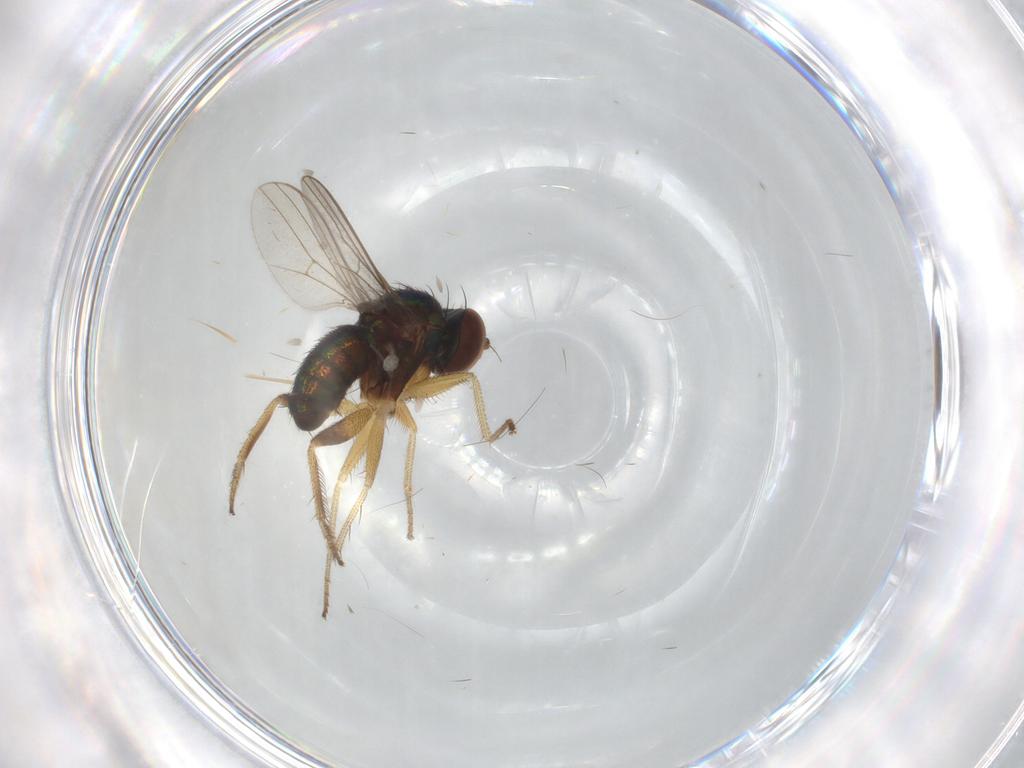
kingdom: Animalia
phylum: Arthropoda
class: Insecta
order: Diptera
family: Psychodidae
